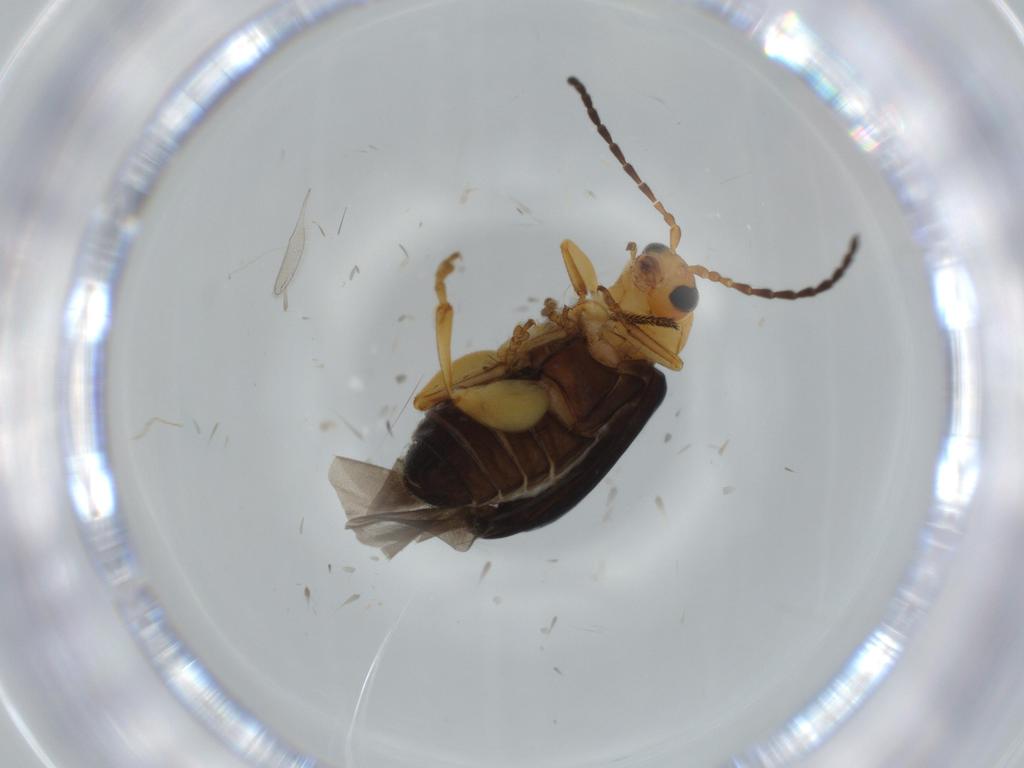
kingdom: Animalia
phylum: Arthropoda
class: Insecta
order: Coleoptera
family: Chrysomelidae
